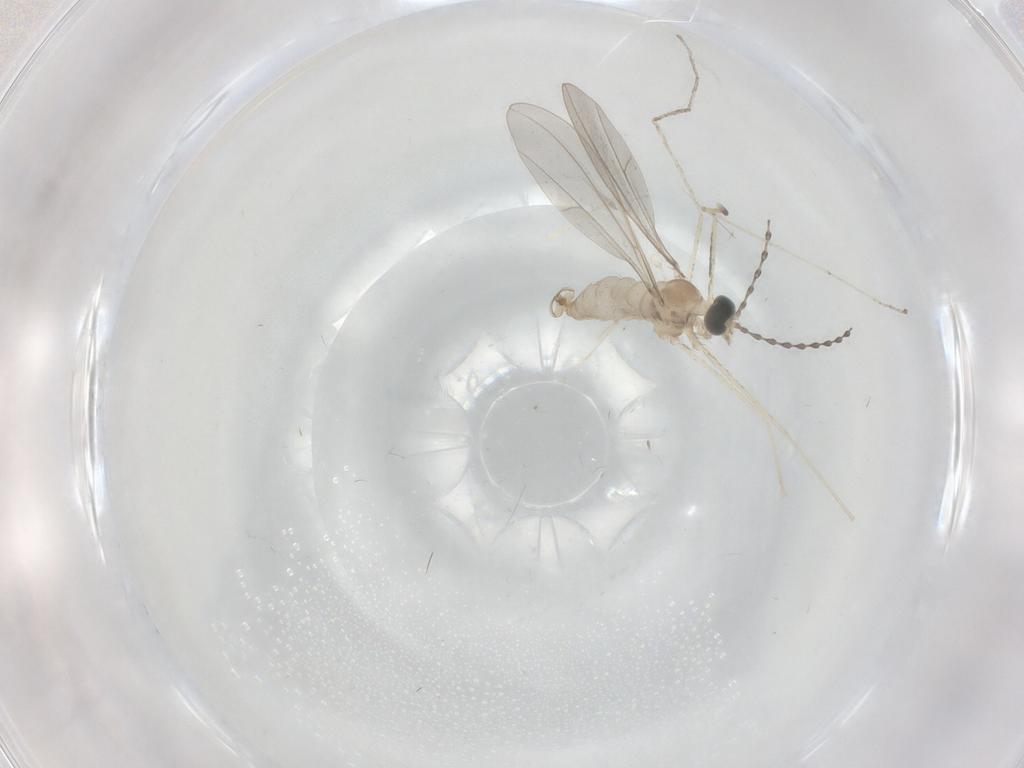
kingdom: Animalia
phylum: Arthropoda
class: Insecta
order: Diptera
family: Cecidomyiidae
